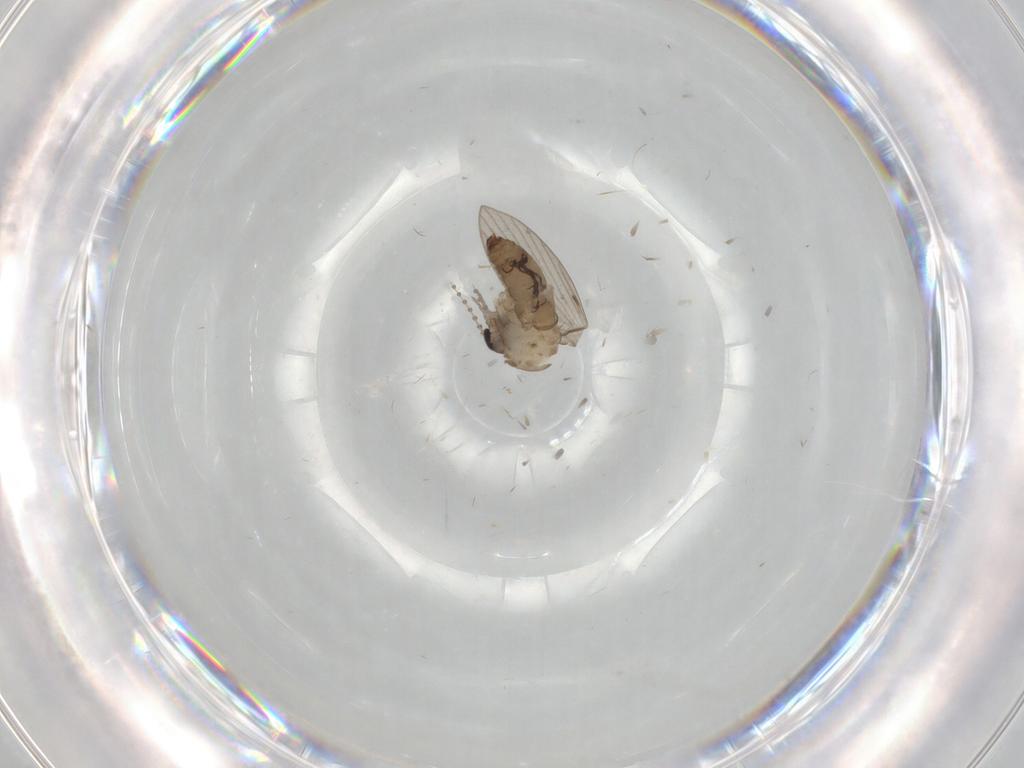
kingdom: Animalia
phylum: Arthropoda
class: Insecta
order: Diptera
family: Psychodidae
